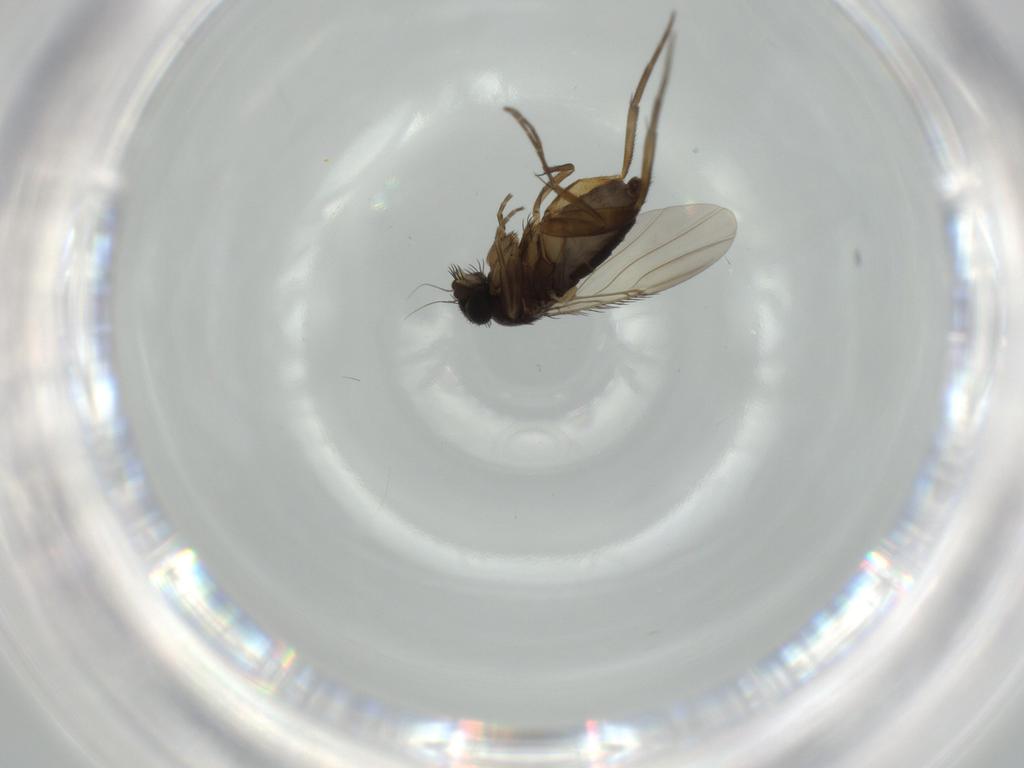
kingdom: Animalia
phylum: Arthropoda
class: Insecta
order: Diptera
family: Phoridae
